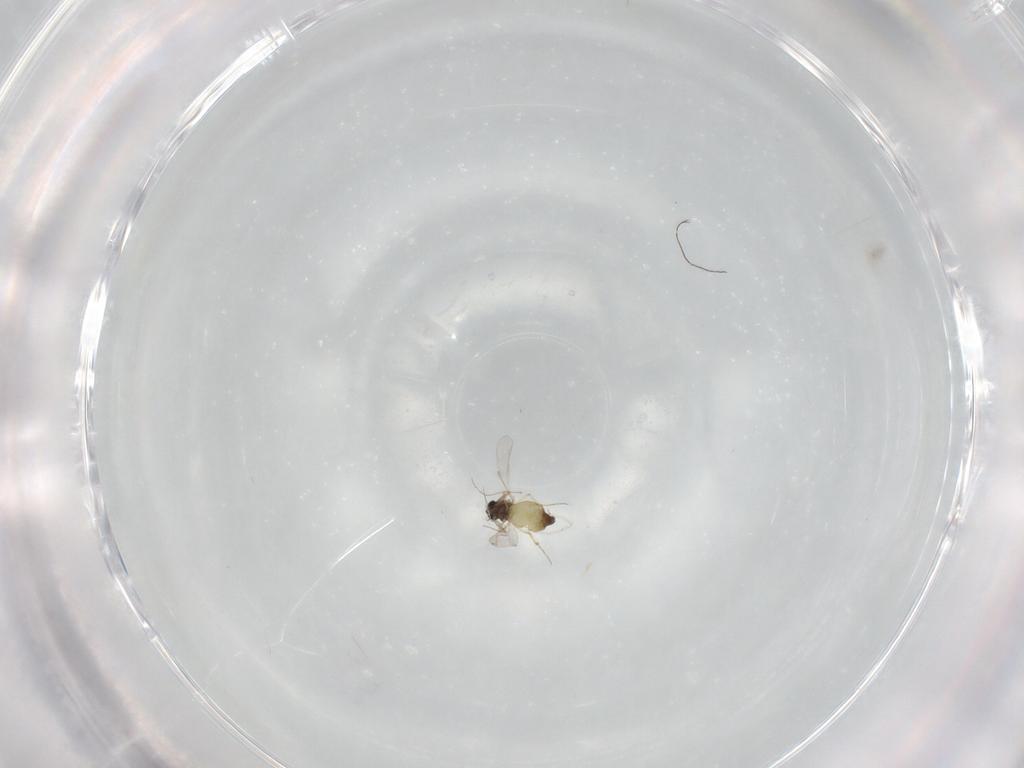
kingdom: Animalia
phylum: Arthropoda
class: Insecta
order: Diptera
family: Chironomidae
